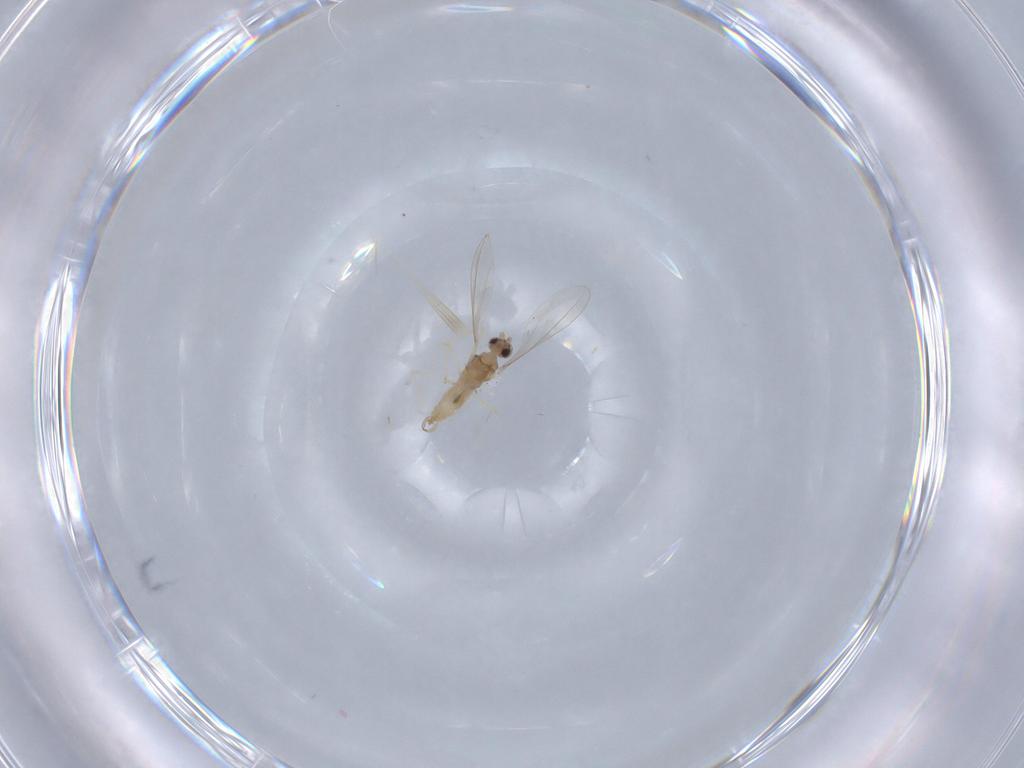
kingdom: Animalia
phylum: Arthropoda
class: Insecta
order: Diptera
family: Cecidomyiidae
